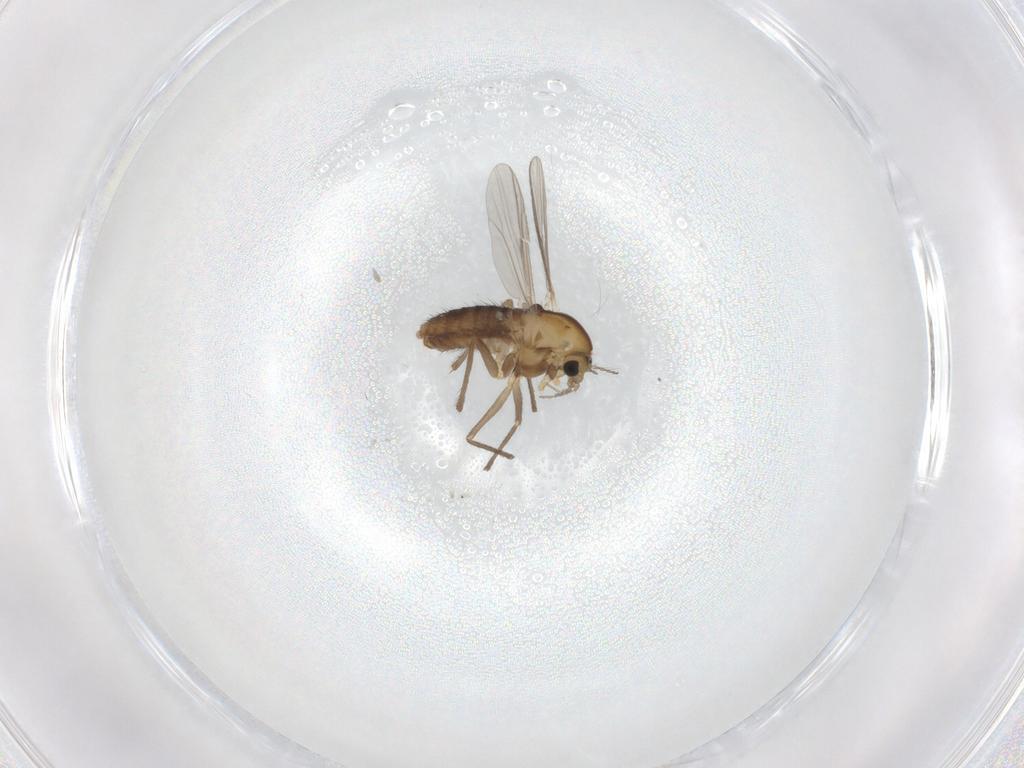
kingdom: Animalia
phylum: Arthropoda
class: Insecta
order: Diptera
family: Chironomidae
